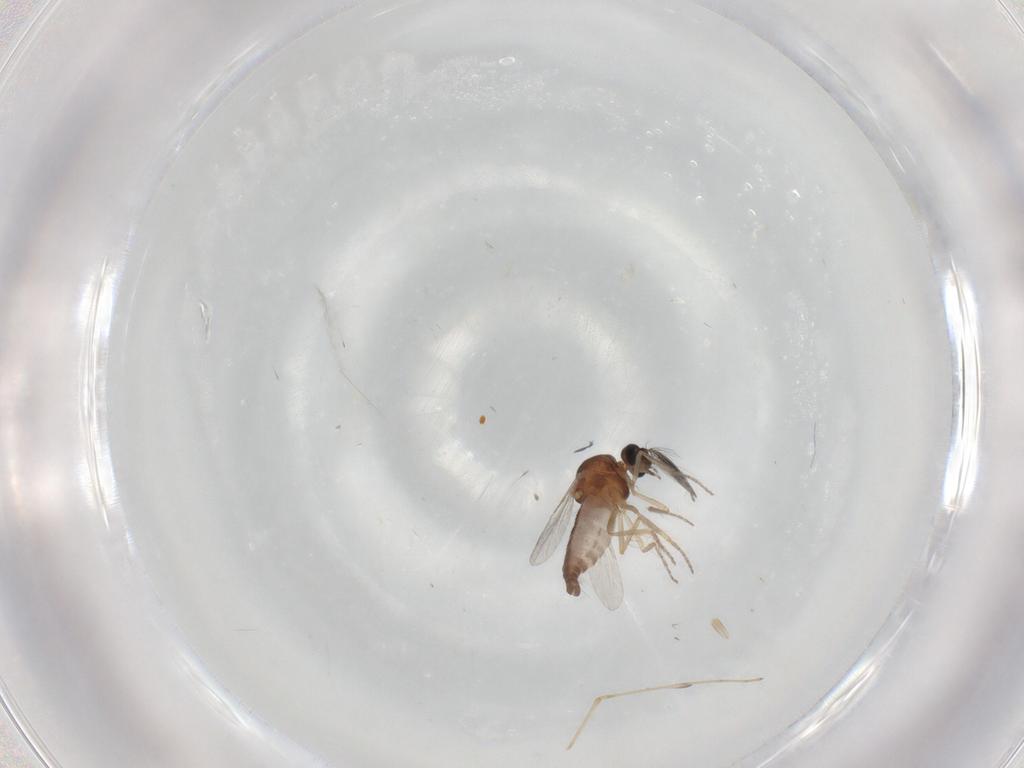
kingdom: Animalia
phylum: Arthropoda
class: Insecta
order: Diptera
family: Ceratopogonidae
